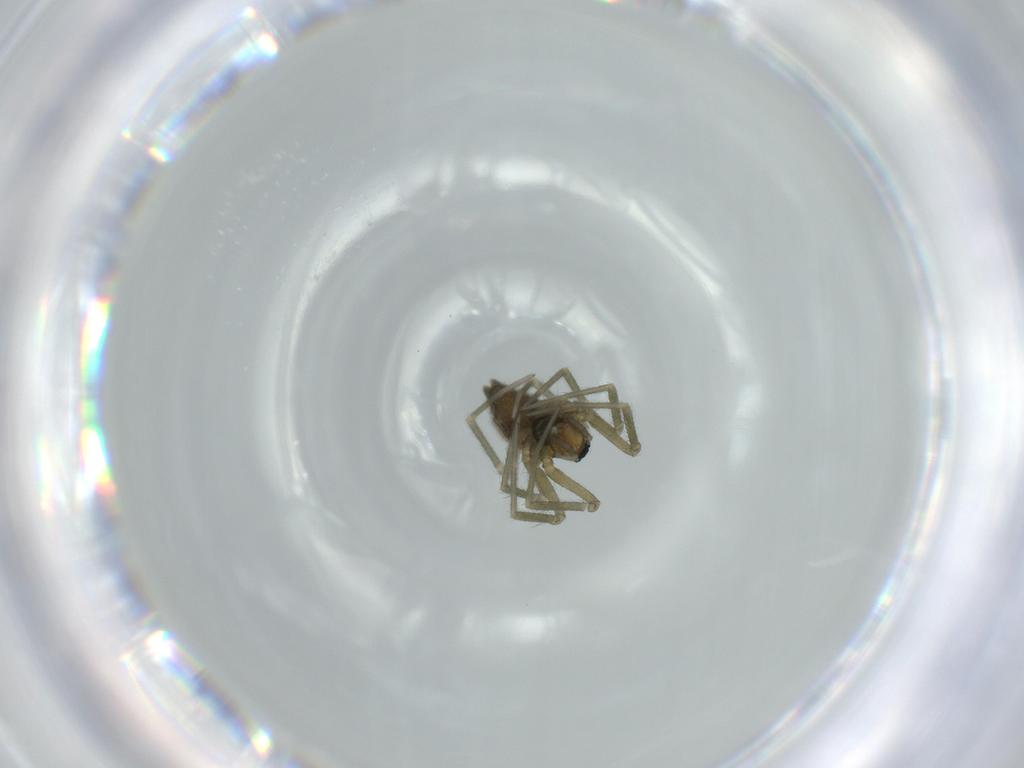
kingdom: Animalia
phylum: Arthropoda
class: Arachnida
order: Araneae
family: Linyphiidae
